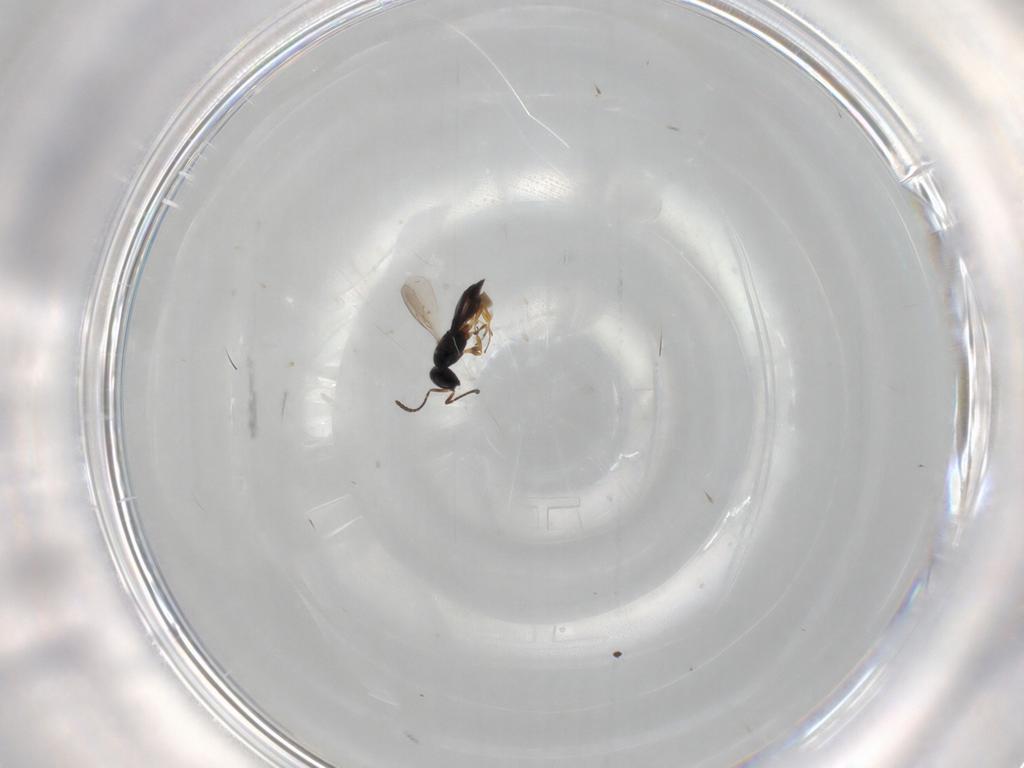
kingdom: Animalia
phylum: Arthropoda
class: Insecta
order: Hymenoptera
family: Scelionidae
